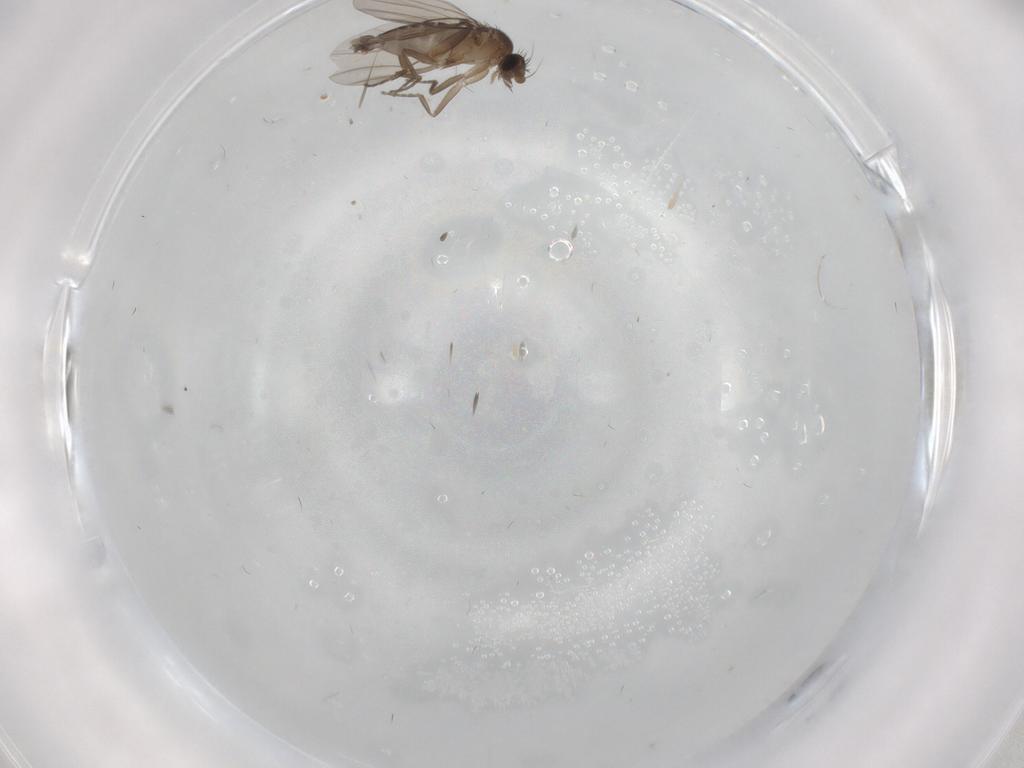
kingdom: Animalia
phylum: Arthropoda
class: Insecta
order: Diptera
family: Phoridae
